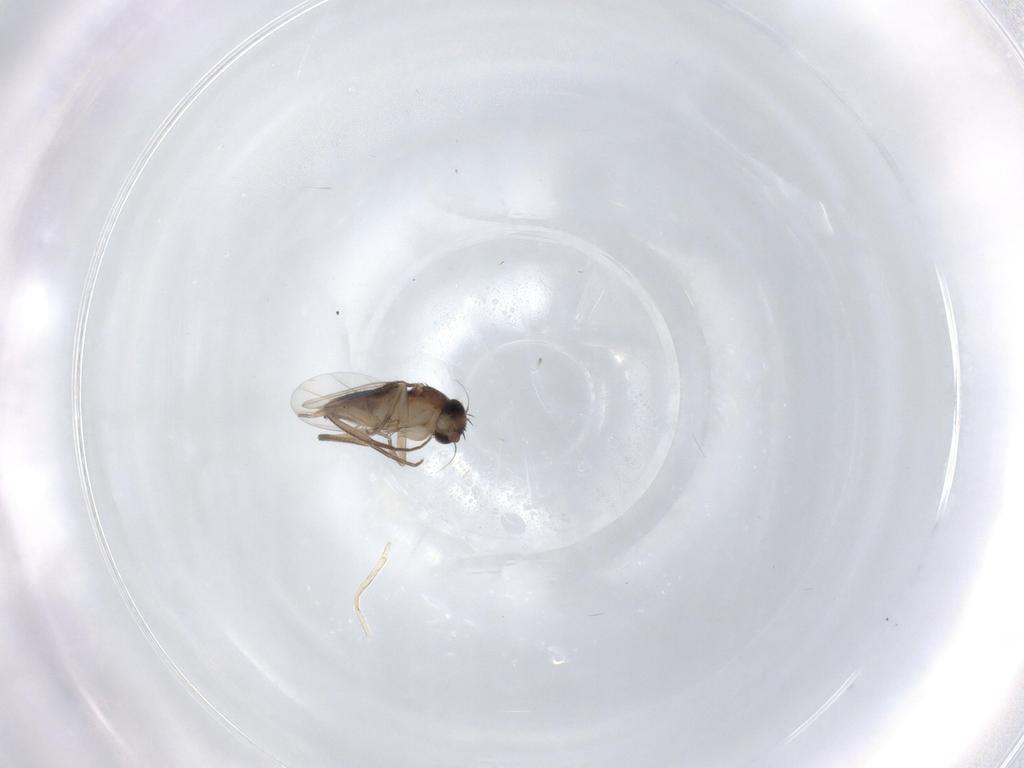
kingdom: Animalia
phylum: Arthropoda
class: Insecta
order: Diptera
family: Phoridae
